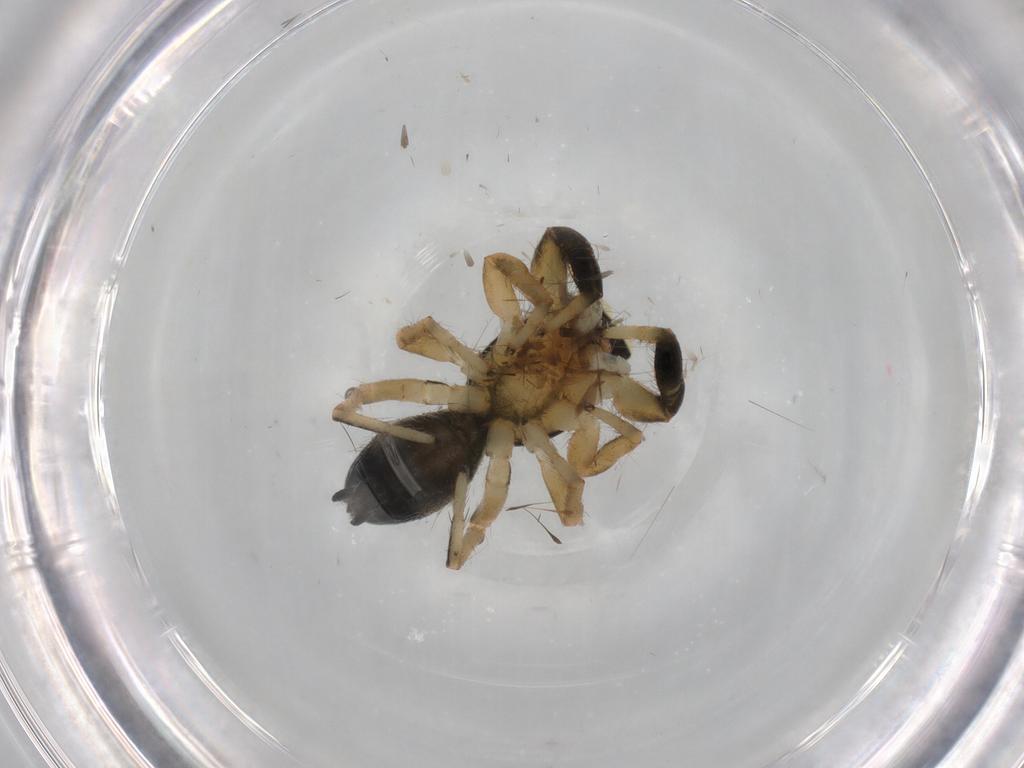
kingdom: Animalia
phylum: Arthropoda
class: Arachnida
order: Araneae
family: Salticidae
